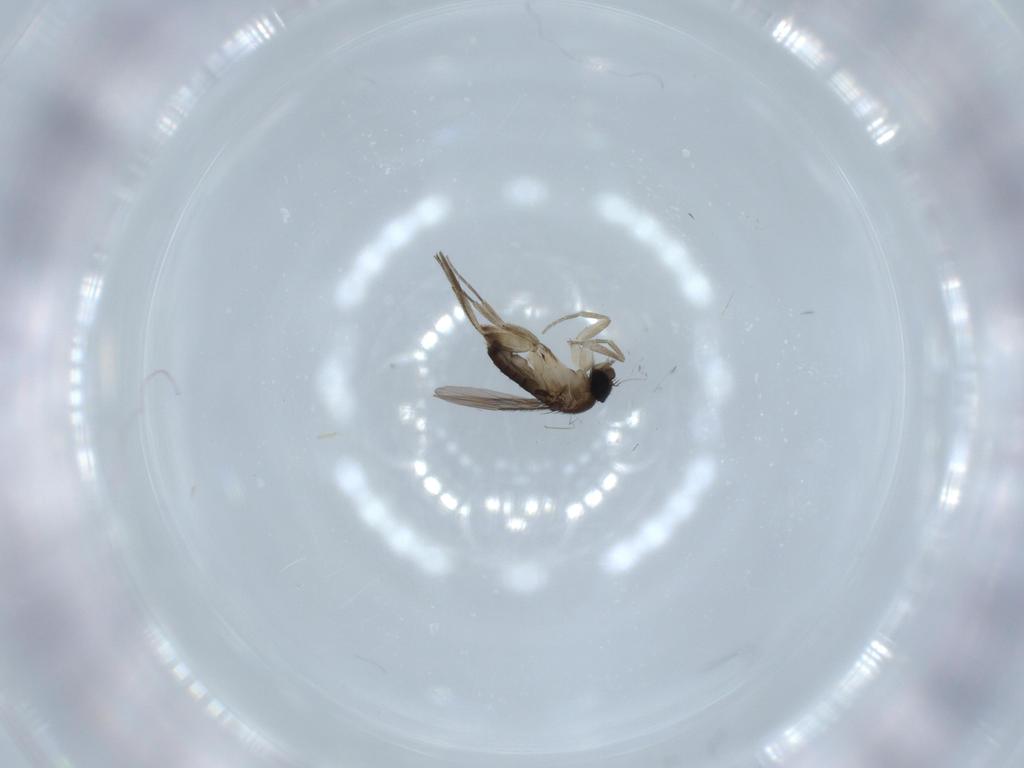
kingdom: Animalia
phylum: Arthropoda
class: Insecta
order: Diptera
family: Phoridae
